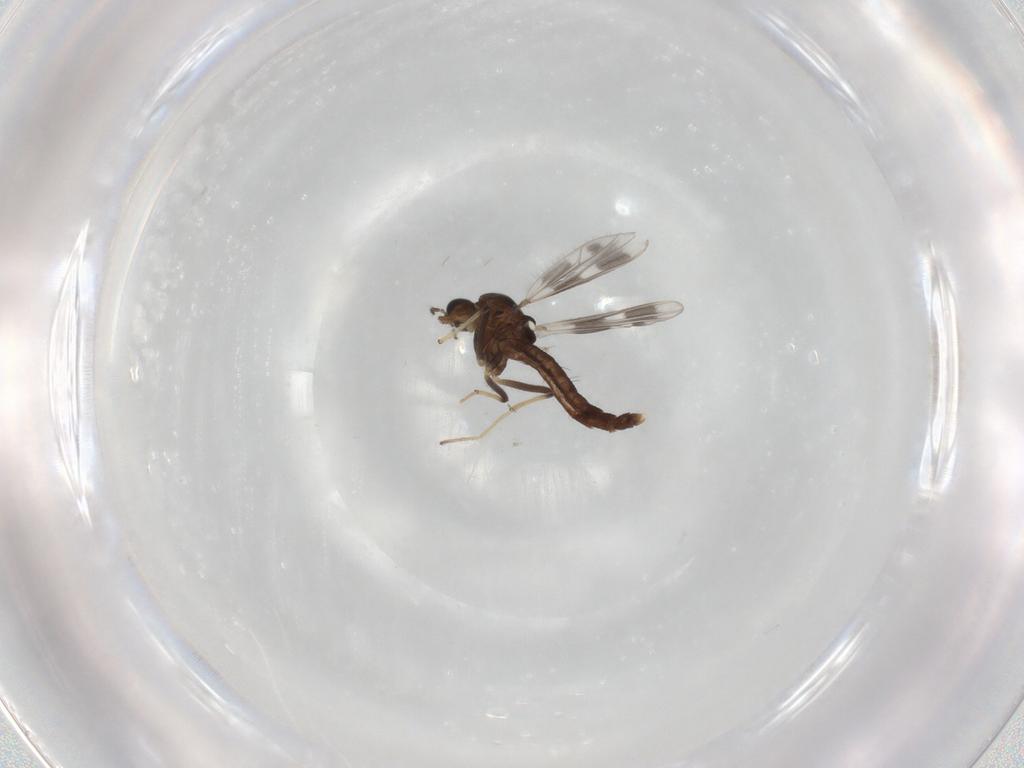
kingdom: Animalia
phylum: Arthropoda
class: Insecta
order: Diptera
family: Chironomidae
